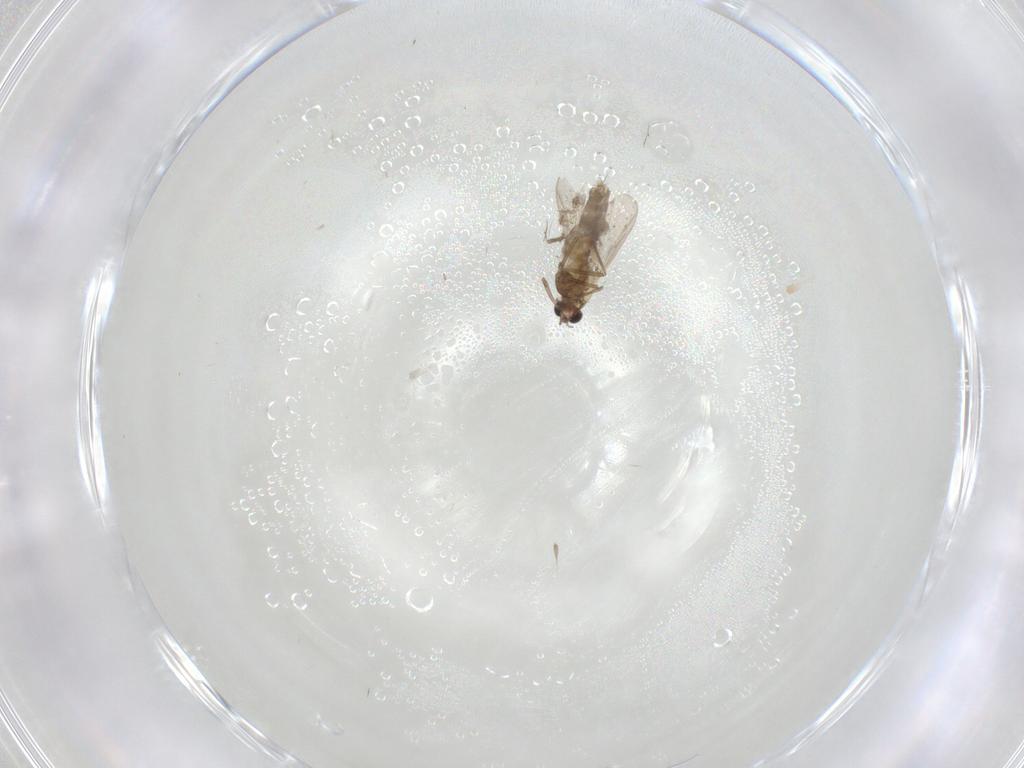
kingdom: Animalia
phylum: Arthropoda
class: Insecta
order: Diptera
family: Chironomidae
